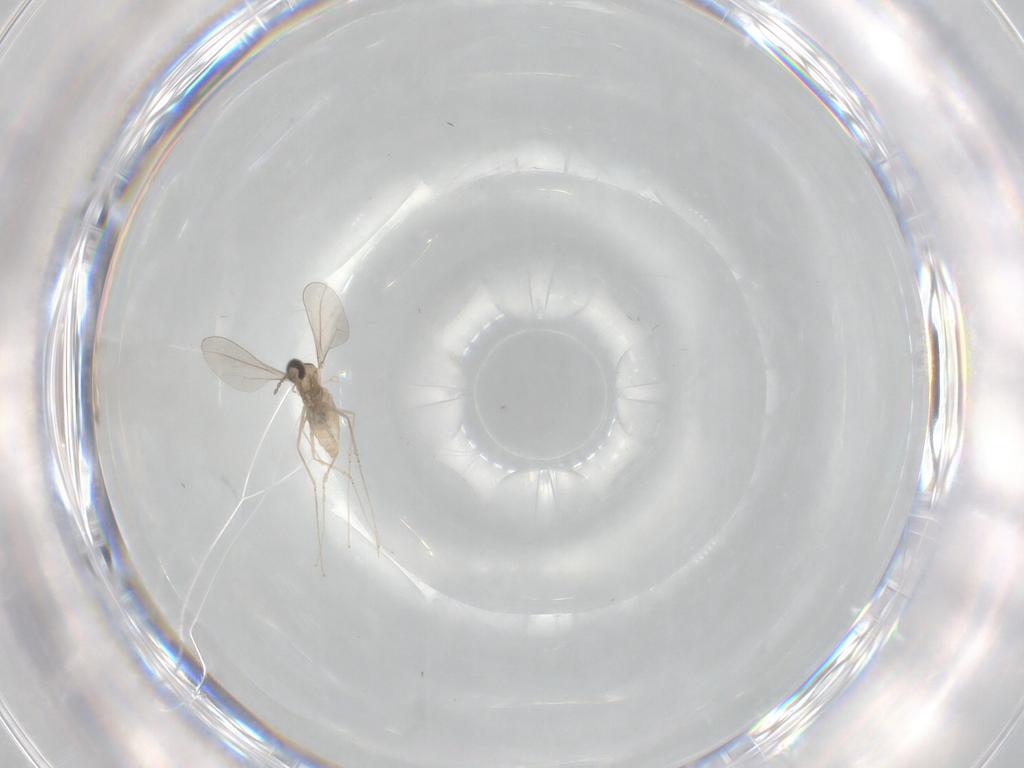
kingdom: Animalia
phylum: Arthropoda
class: Insecta
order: Diptera
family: Cecidomyiidae
